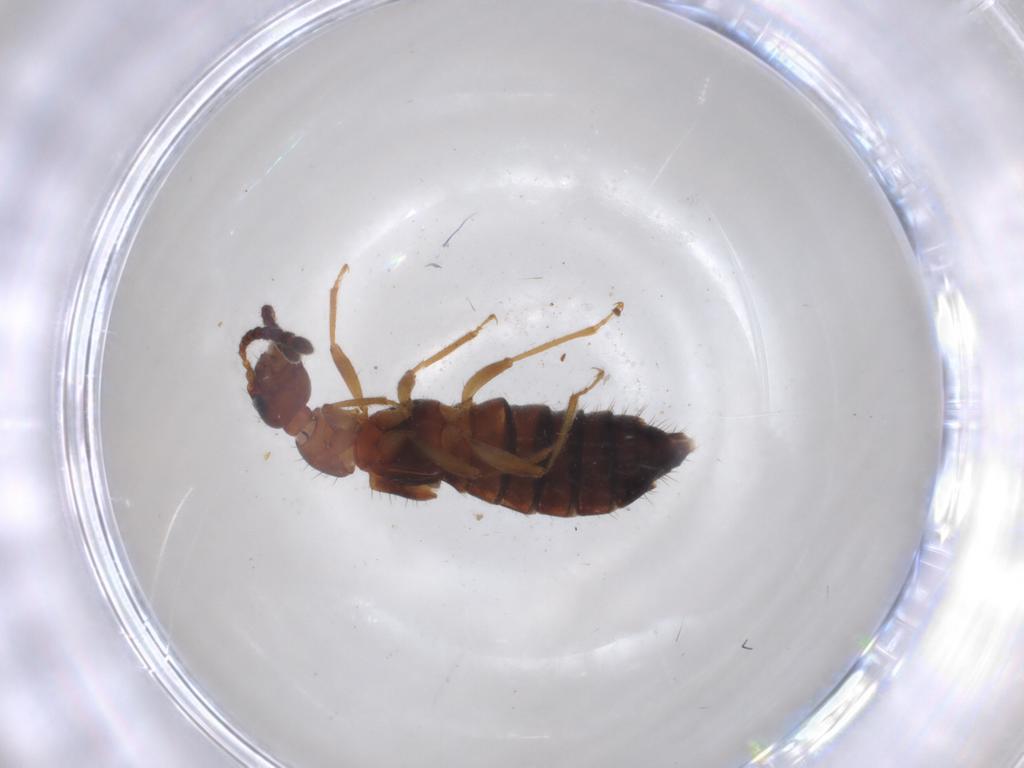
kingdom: Animalia
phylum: Arthropoda
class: Insecta
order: Coleoptera
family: Staphylinidae
